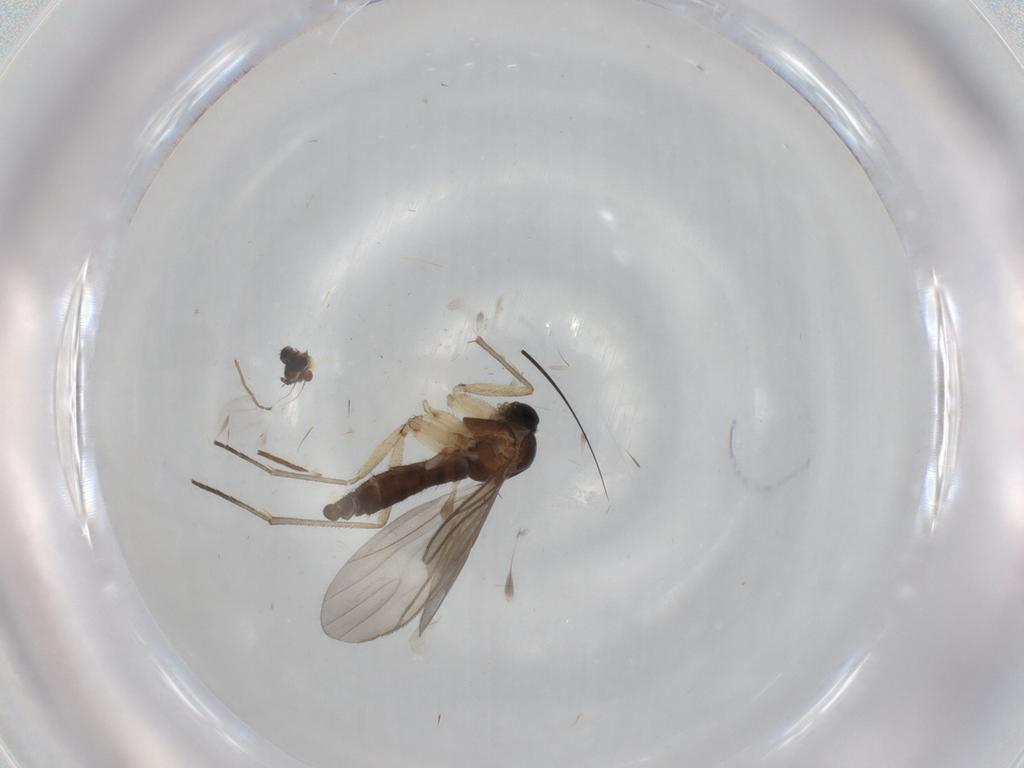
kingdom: Animalia
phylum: Arthropoda
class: Insecta
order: Diptera
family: Sciaridae
